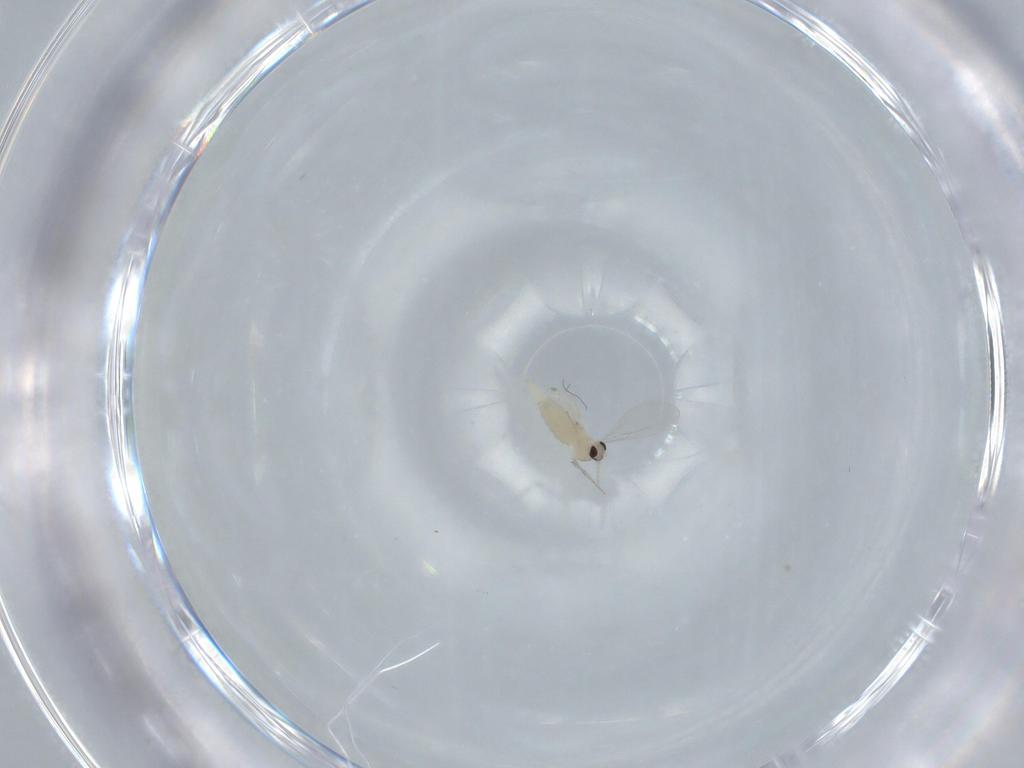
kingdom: Animalia
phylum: Arthropoda
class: Insecta
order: Diptera
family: Cecidomyiidae
